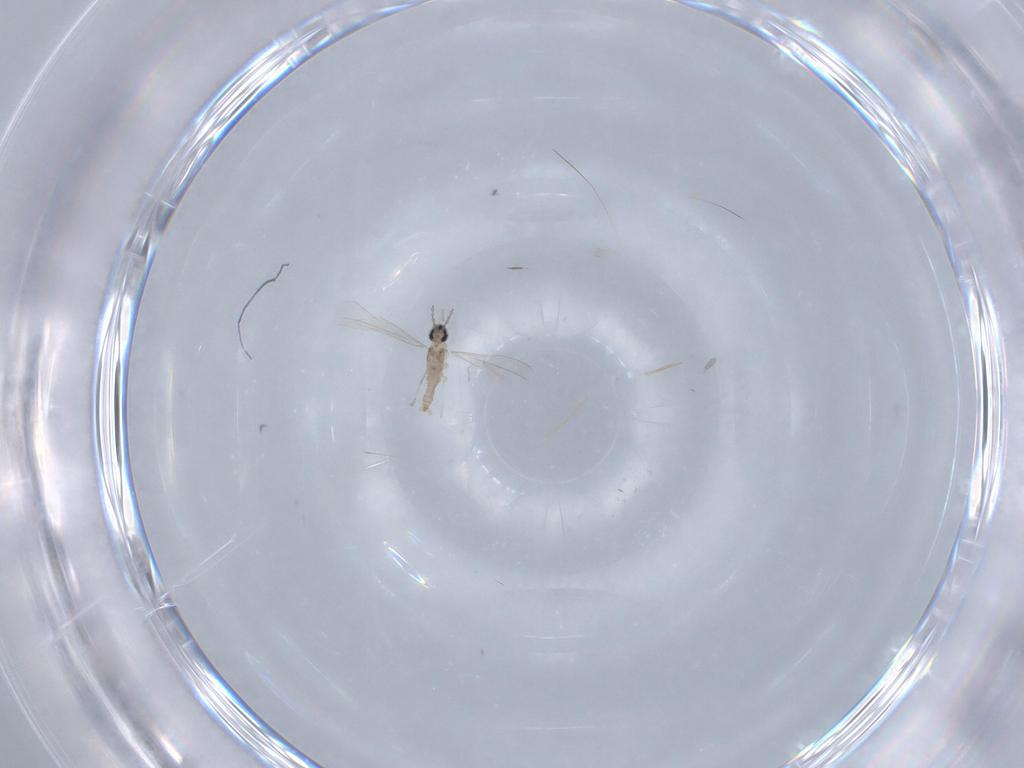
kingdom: Animalia
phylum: Arthropoda
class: Insecta
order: Diptera
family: Cecidomyiidae
